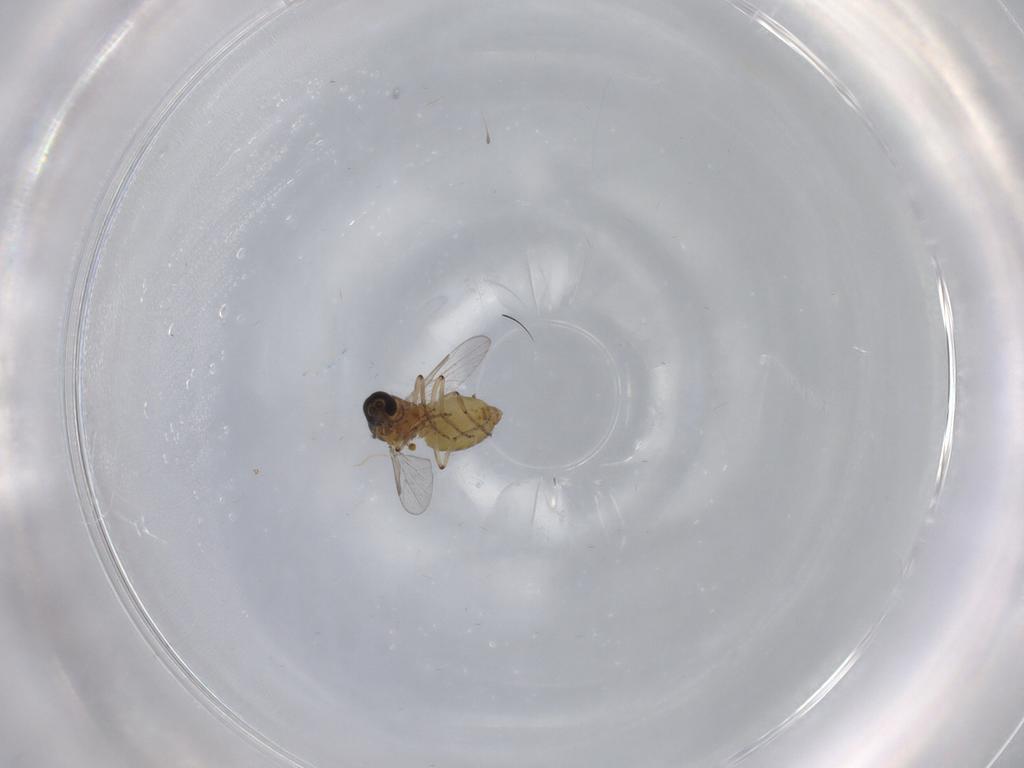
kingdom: Animalia
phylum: Arthropoda
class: Insecta
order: Diptera
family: Ceratopogonidae
